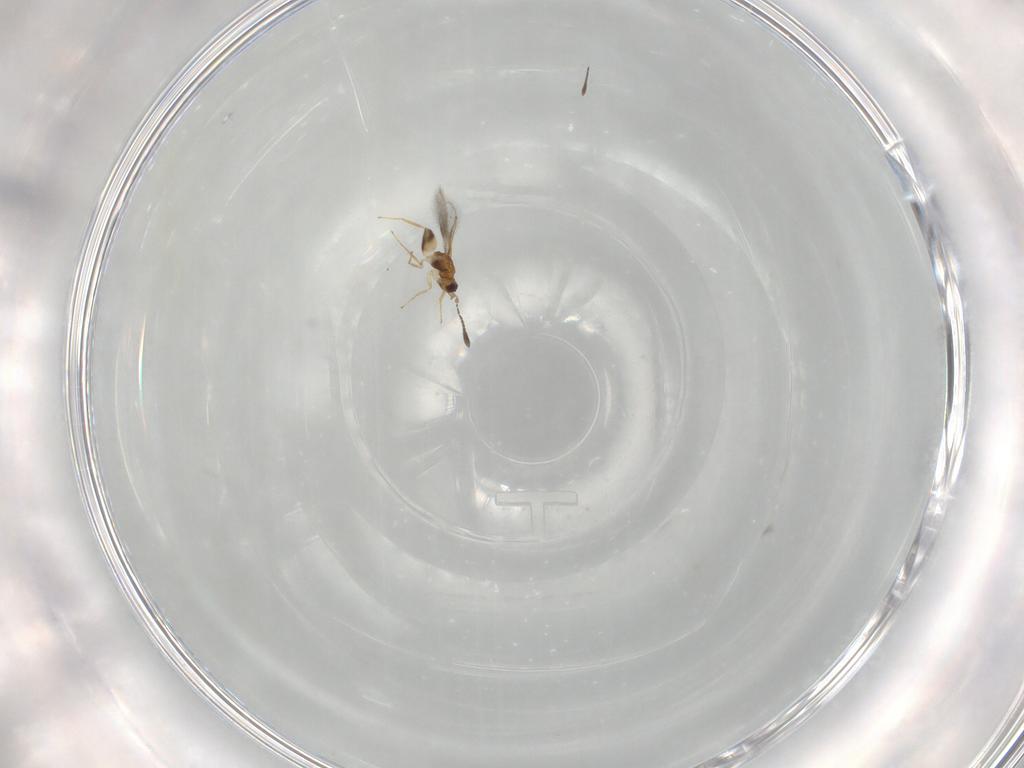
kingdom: Animalia
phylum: Arthropoda
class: Insecta
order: Hymenoptera
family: Mymaridae
